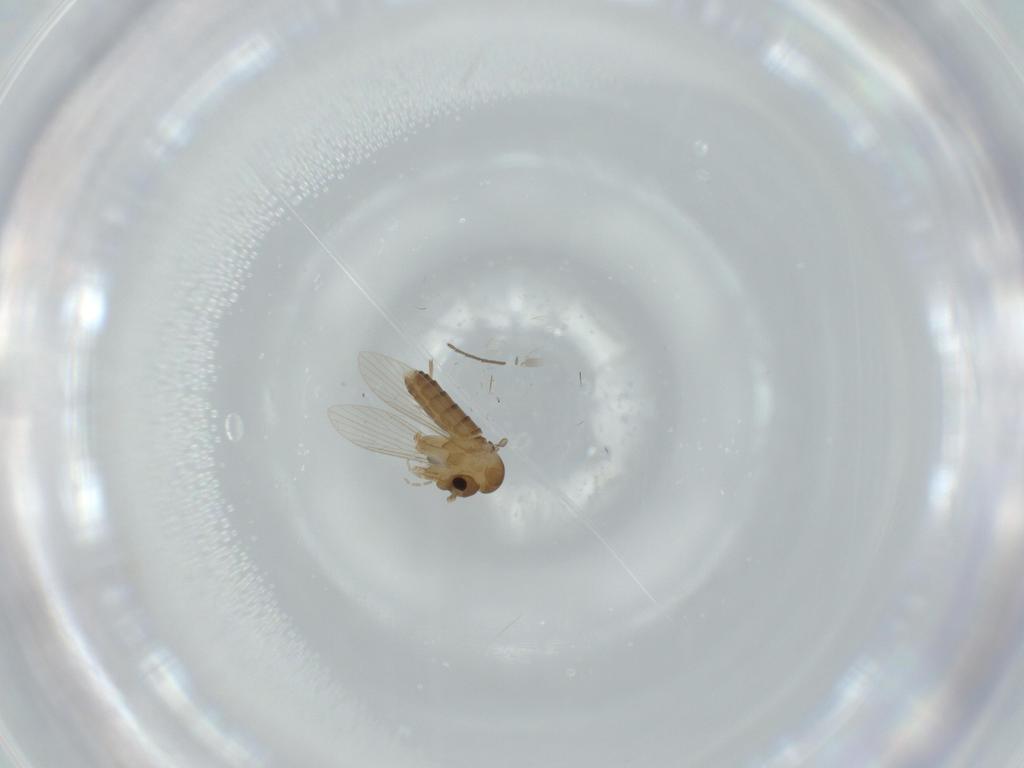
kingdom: Animalia
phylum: Arthropoda
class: Insecta
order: Diptera
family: Psychodidae
